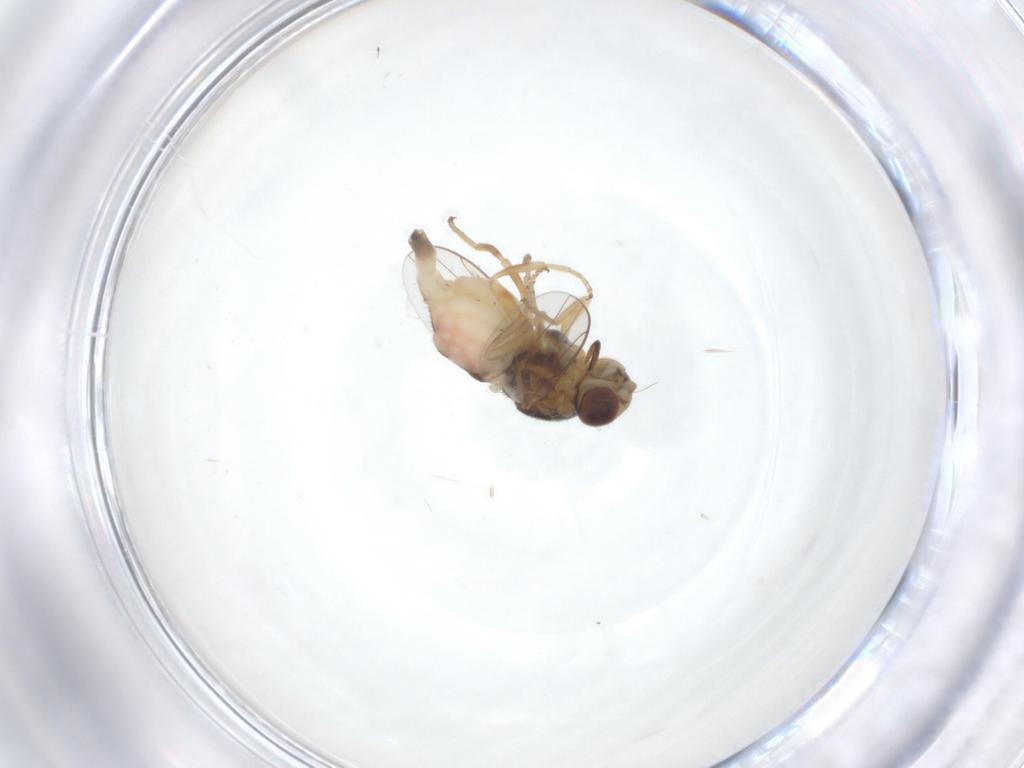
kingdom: Animalia
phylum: Arthropoda
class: Insecta
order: Diptera
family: Chloropidae
